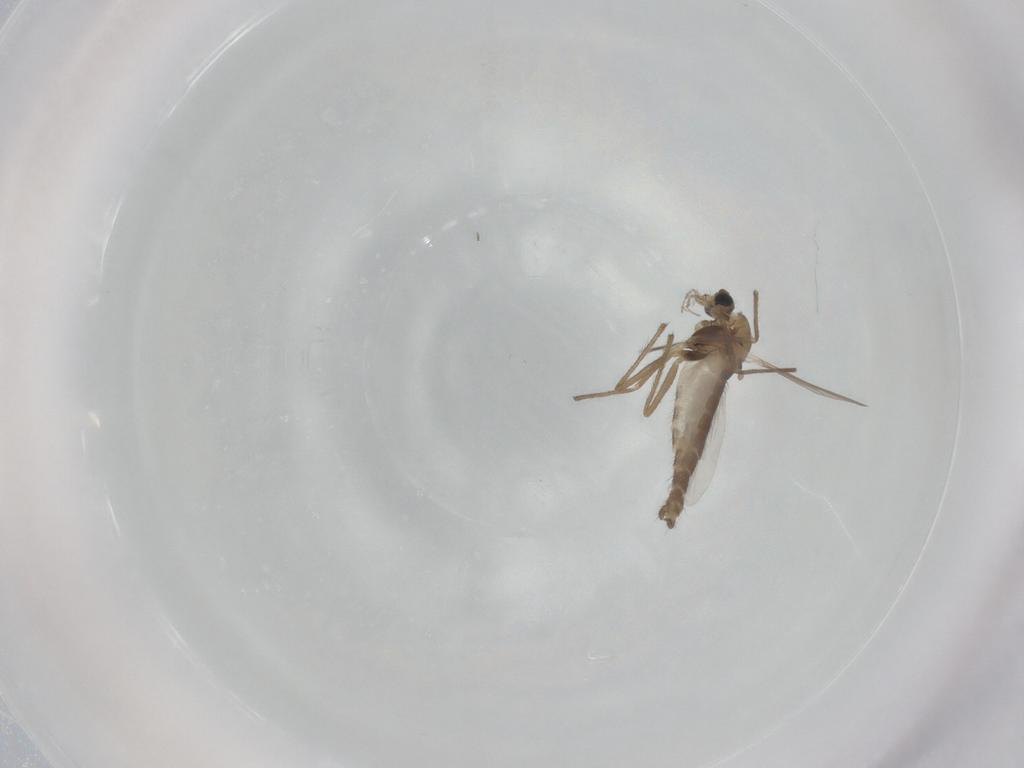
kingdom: Animalia
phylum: Arthropoda
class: Insecta
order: Diptera
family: Chironomidae
